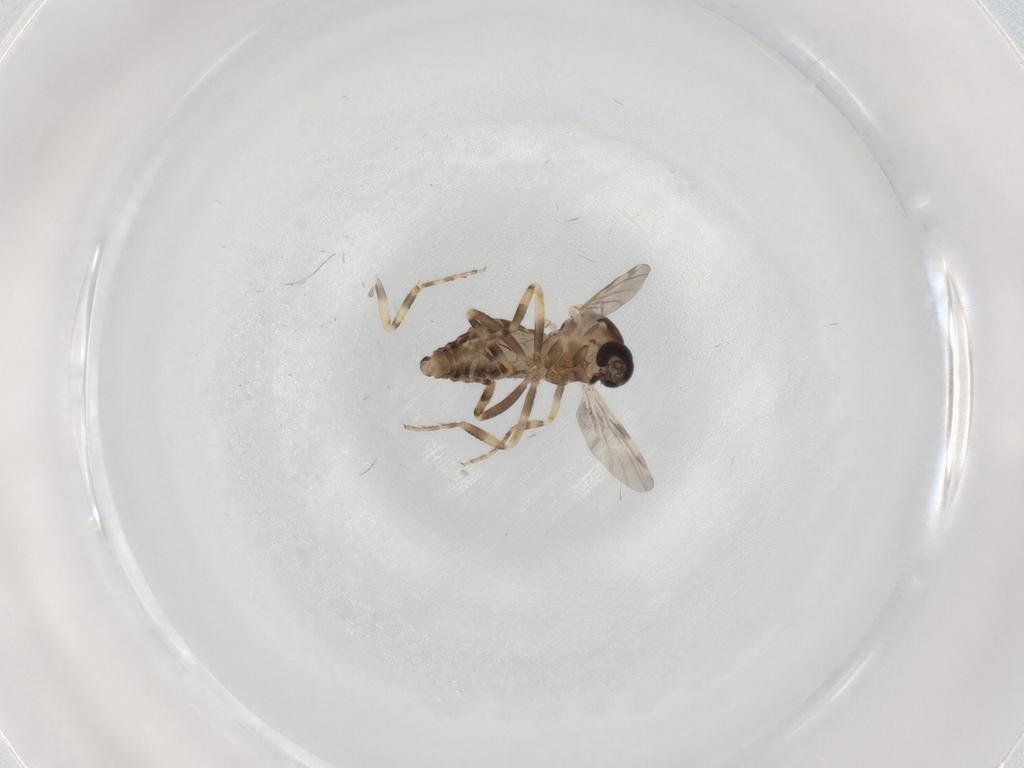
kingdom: Animalia
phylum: Arthropoda
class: Insecta
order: Diptera
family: Ceratopogonidae
